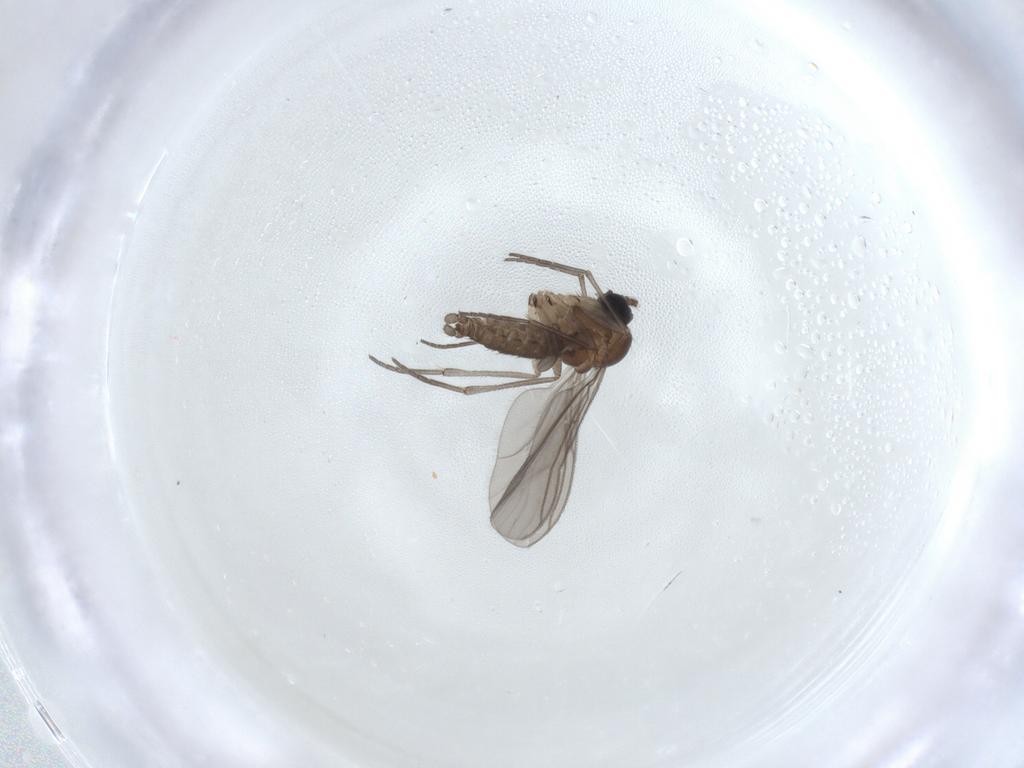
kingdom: Animalia
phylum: Arthropoda
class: Insecta
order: Diptera
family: Sciaridae
